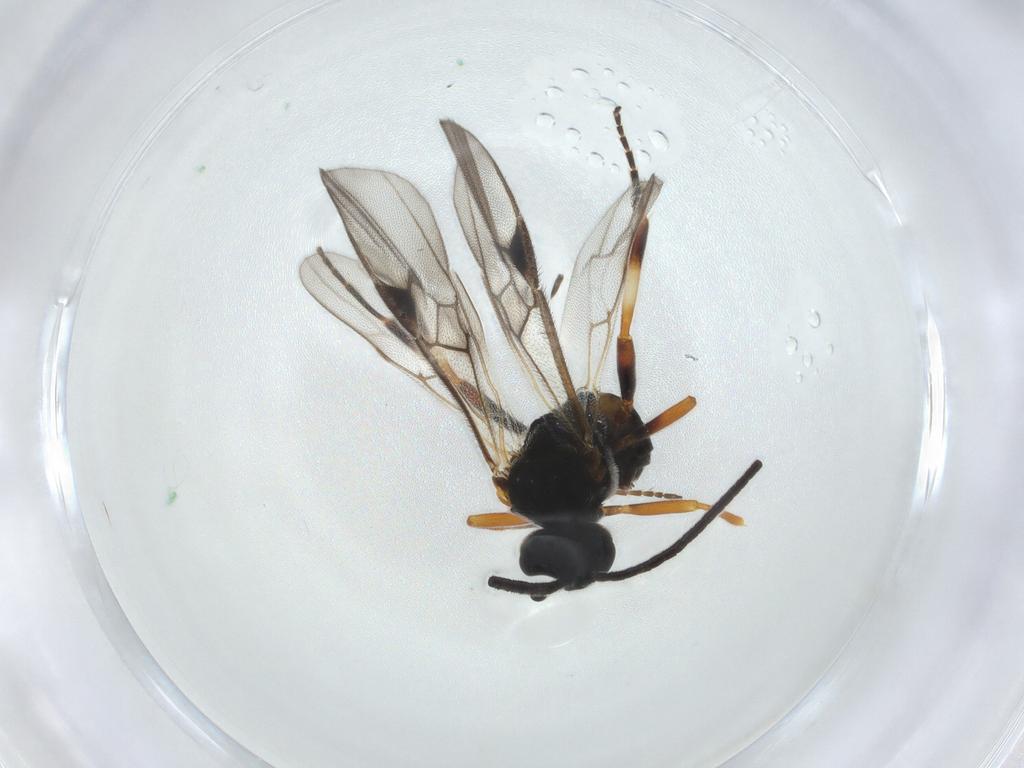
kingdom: Animalia
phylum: Arthropoda
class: Insecta
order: Hymenoptera
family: Braconidae
